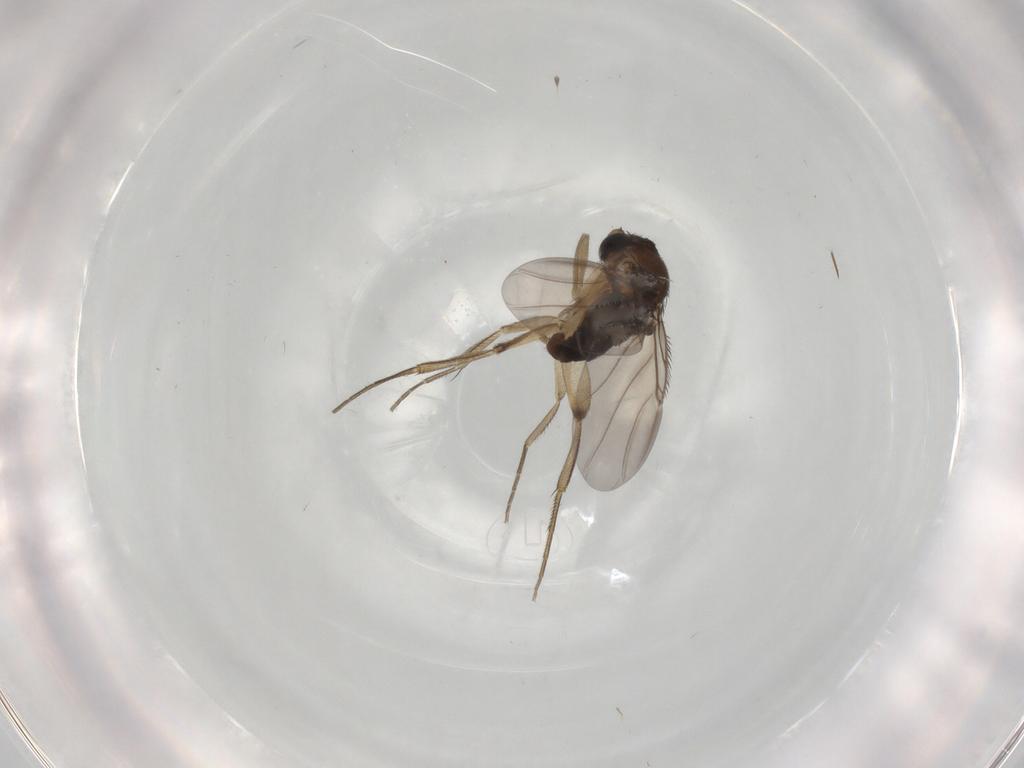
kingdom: Animalia
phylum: Arthropoda
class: Insecta
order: Diptera
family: Phoridae
